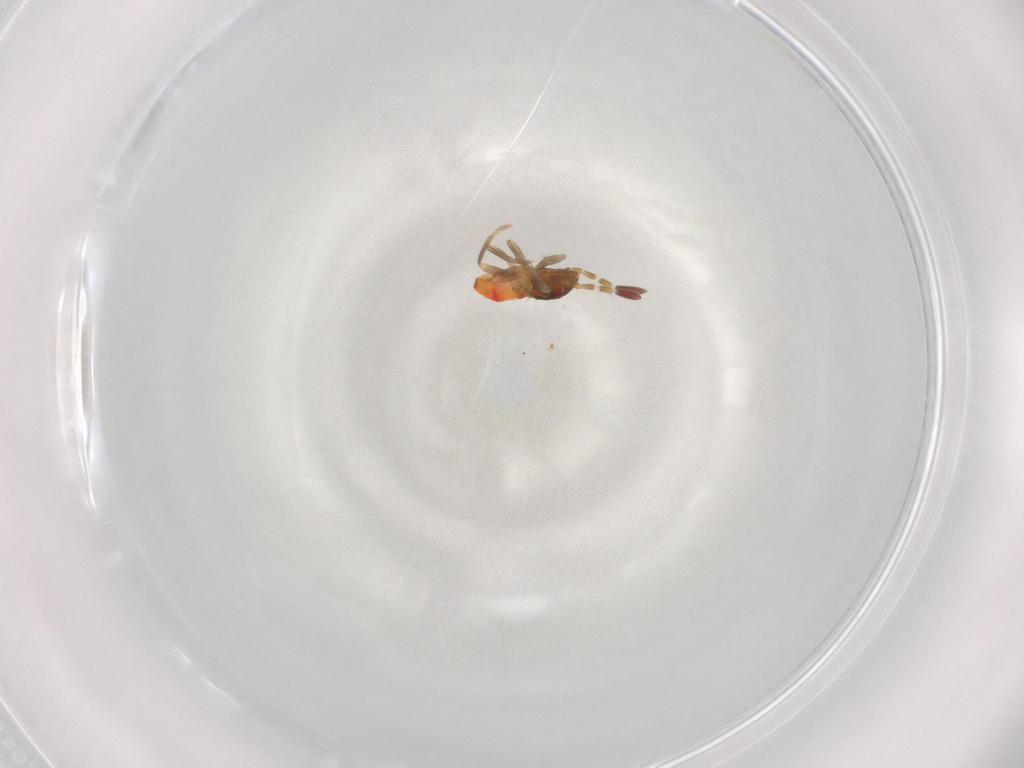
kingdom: Animalia
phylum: Arthropoda
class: Insecta
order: Hemiptera
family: Rhyparochromidae
